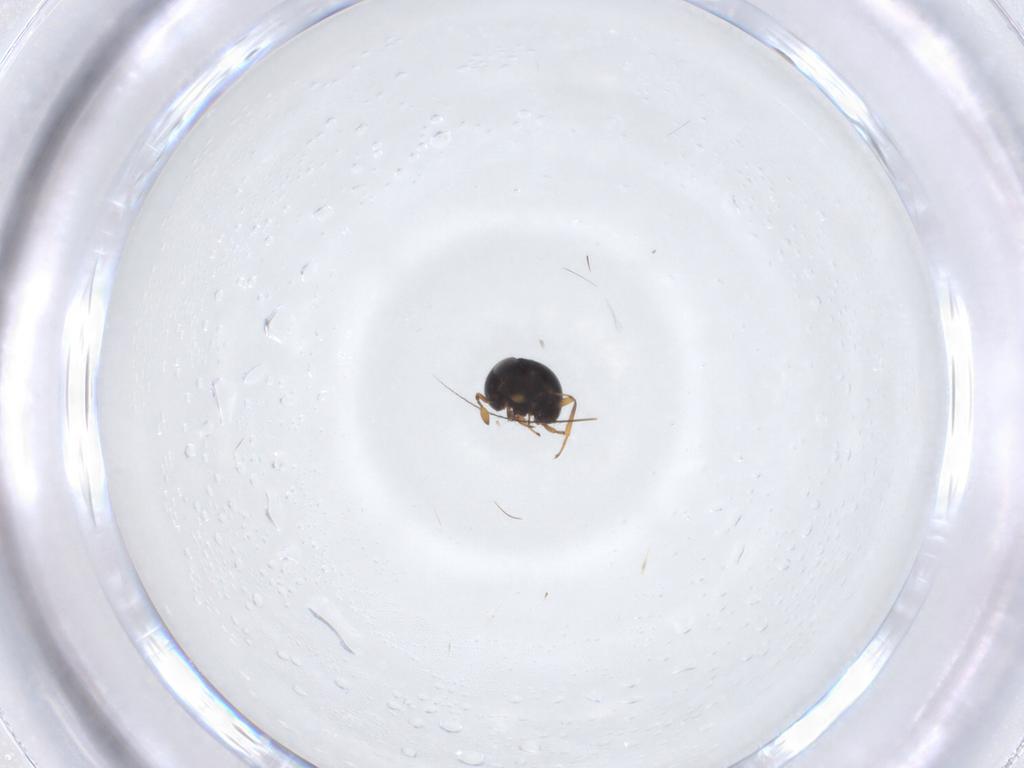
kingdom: Animalia
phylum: Arthropoda
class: Insecta
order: Hymenoptera
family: Scelionidae
